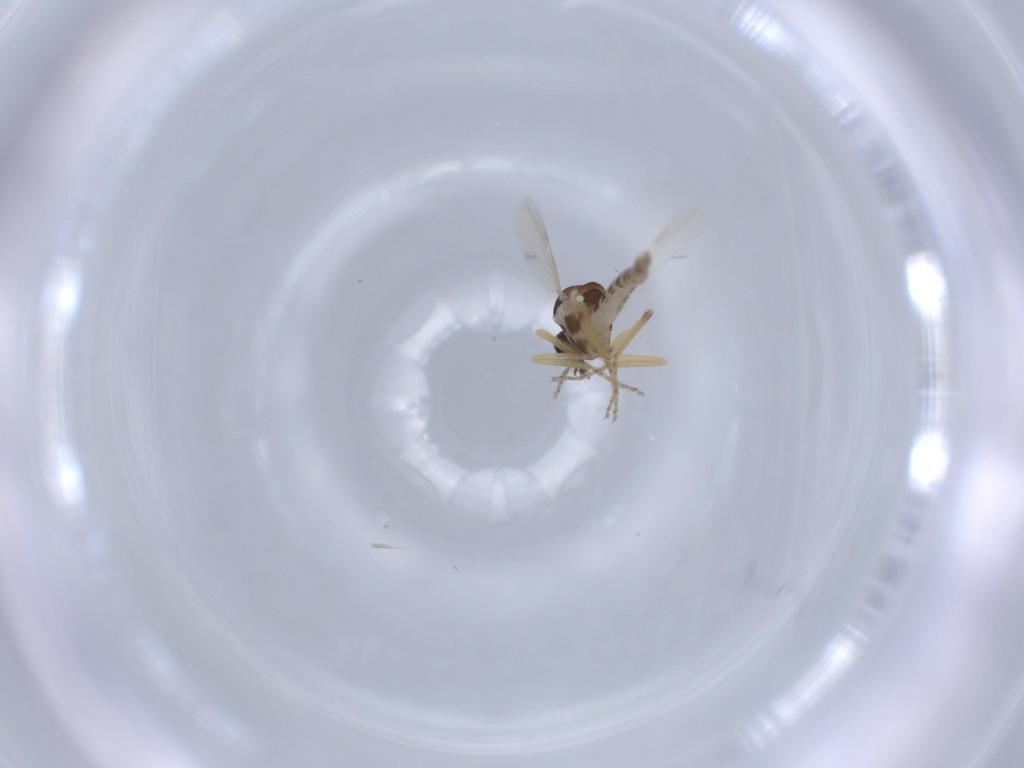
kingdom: Animalia
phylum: Arthropoda
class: Insecta
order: Diptera
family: Ceratopogonidae
